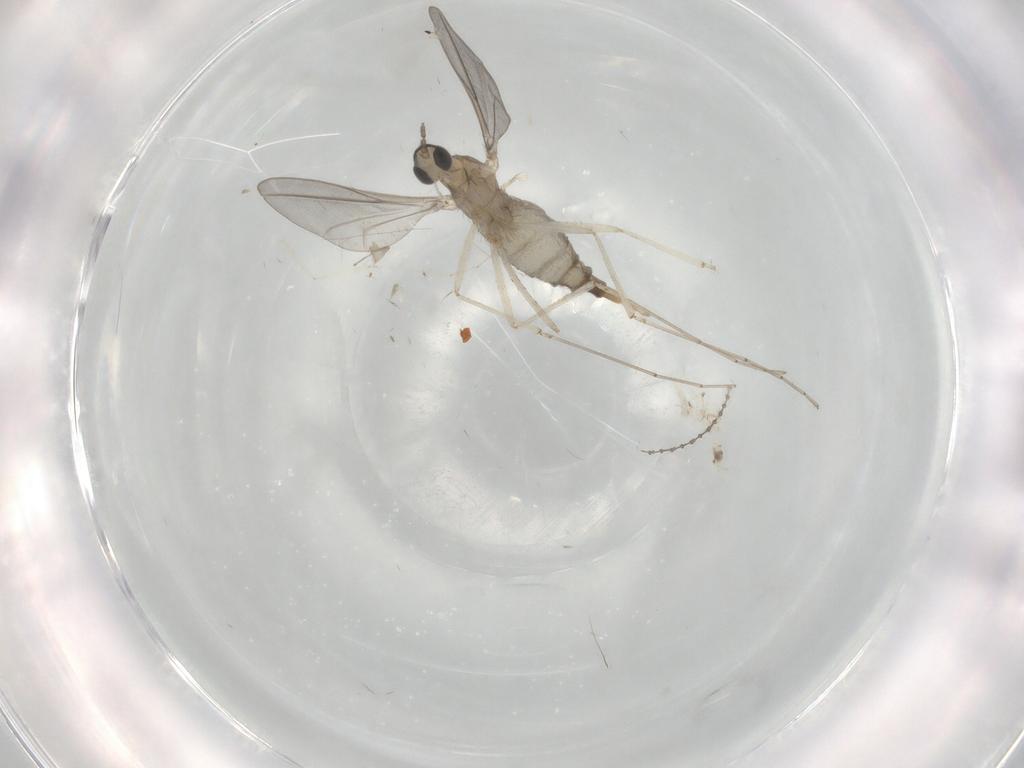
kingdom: Animalia
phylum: Arthropoda
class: Insecta
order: Diptera
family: Cecidomyiidae
